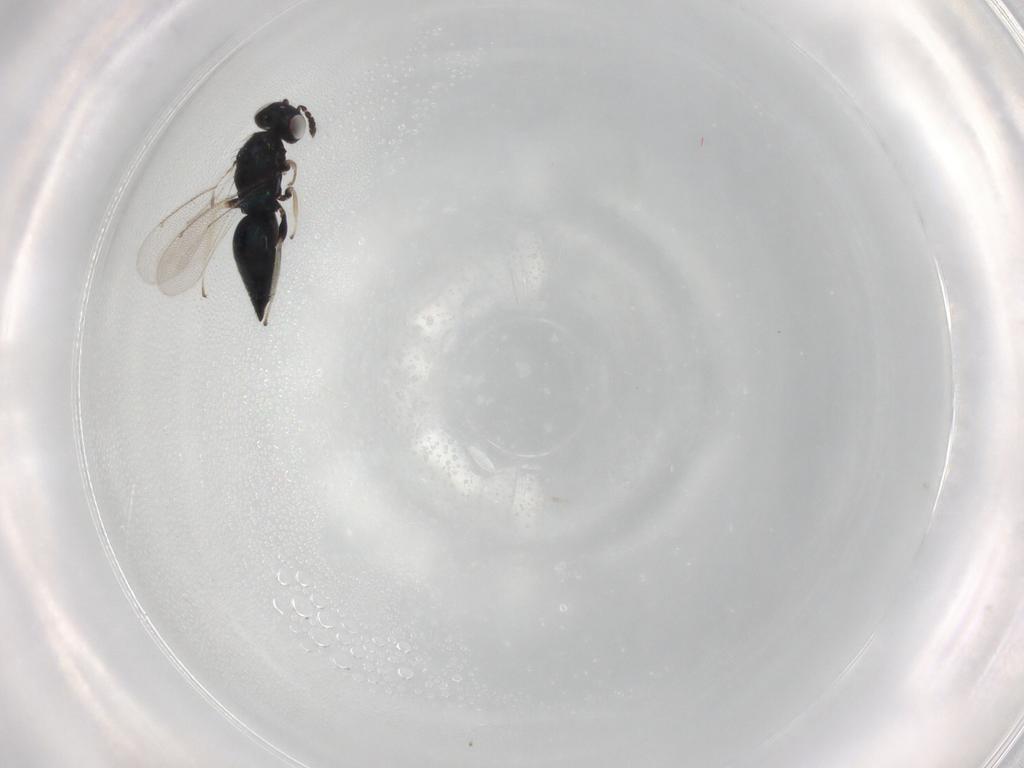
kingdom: Animalia
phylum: Arthropoda
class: Insecta
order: Hymenoptera
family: Eulophidae
